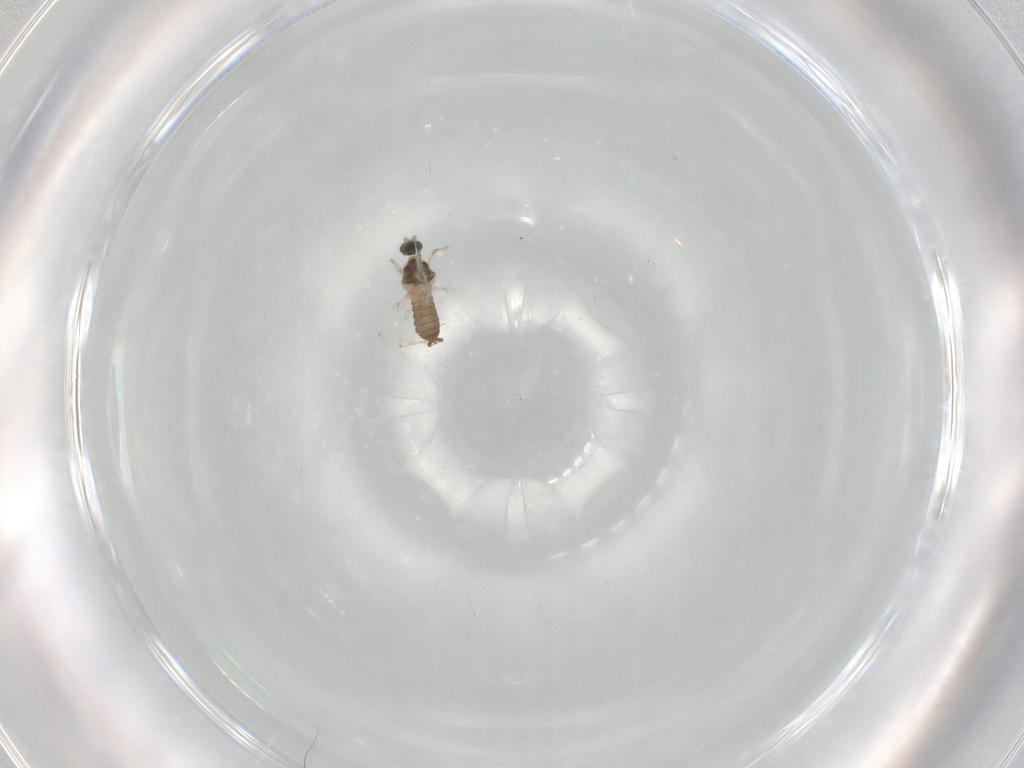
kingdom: Animalia
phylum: Arthropoda
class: Insecta
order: Diptera
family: Cecidomyiidae
